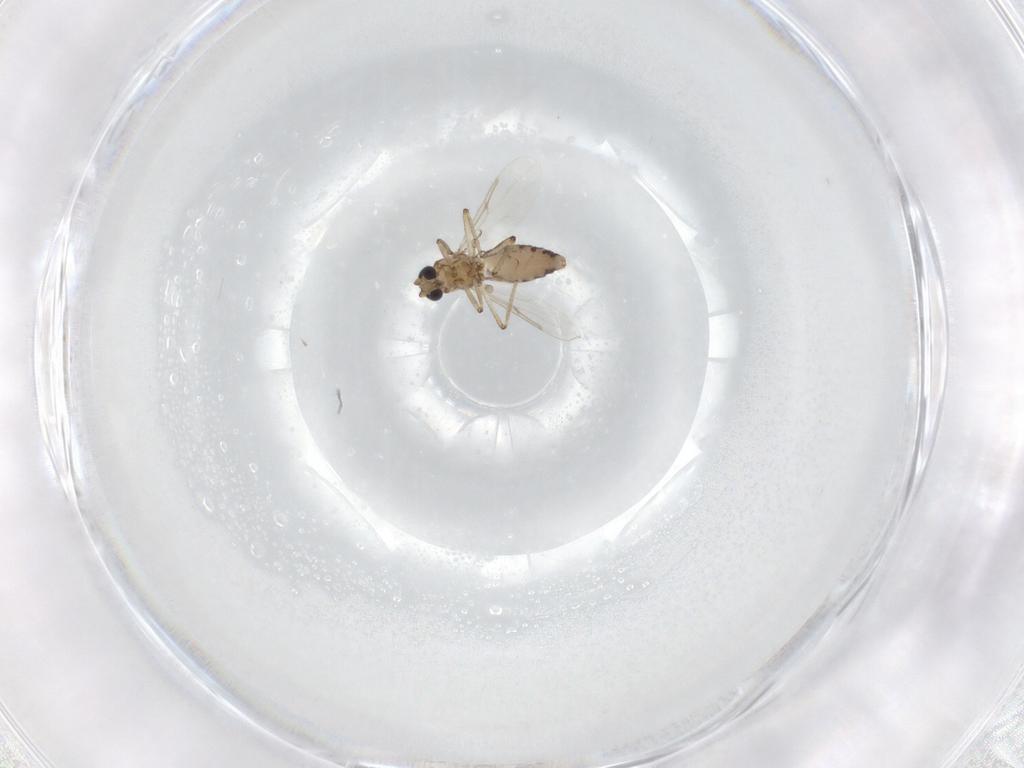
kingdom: Animalia
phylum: Arthropoda
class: Insecta
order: Diptera
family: Ceratopogonidae
